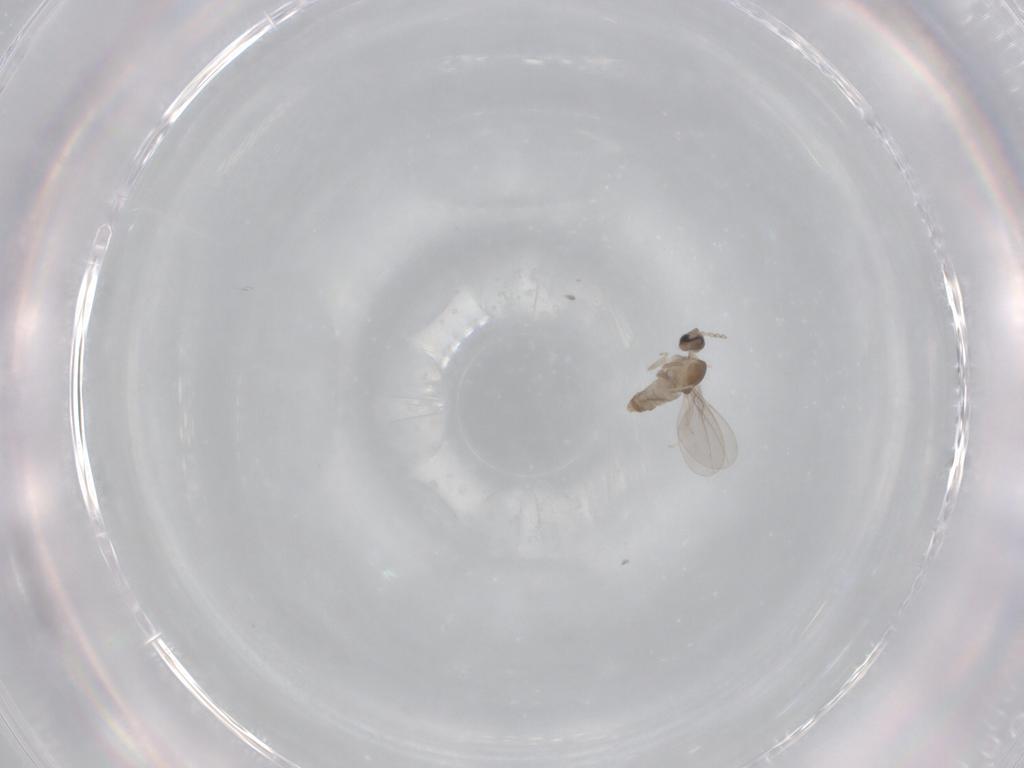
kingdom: Animalia
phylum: Arthropoda
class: Insecta
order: Diptera
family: Cecidomyiidae
